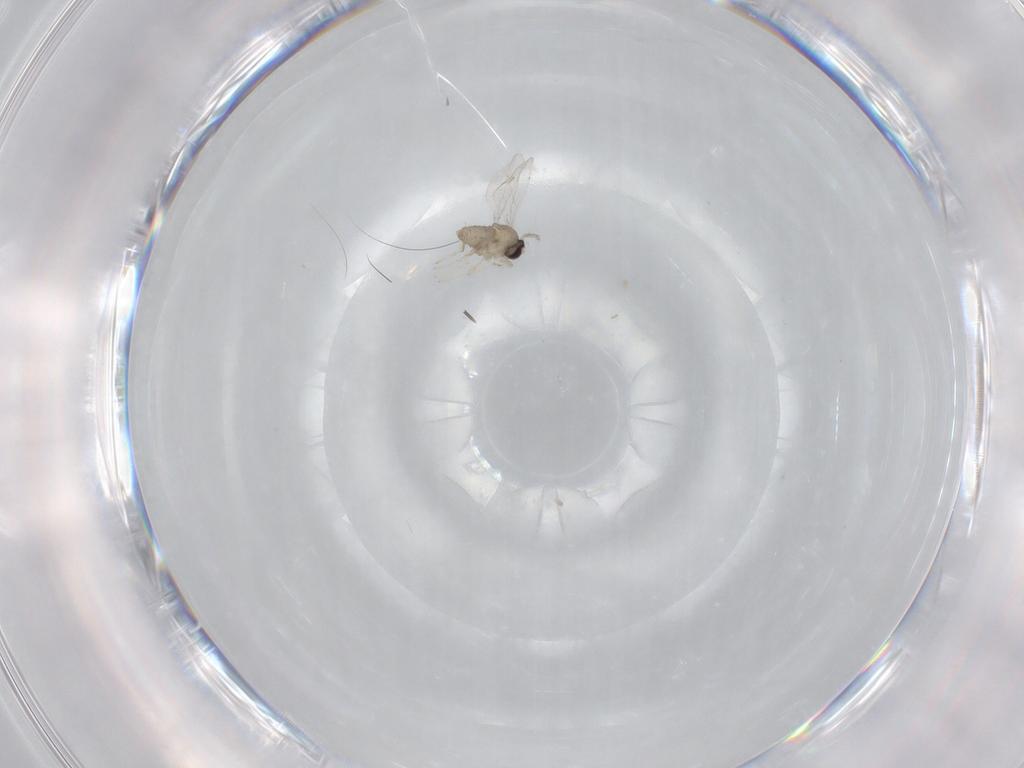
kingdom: Animalia
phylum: Arthropoda
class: Insecta
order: Diptera
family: Cecidomyiidae
